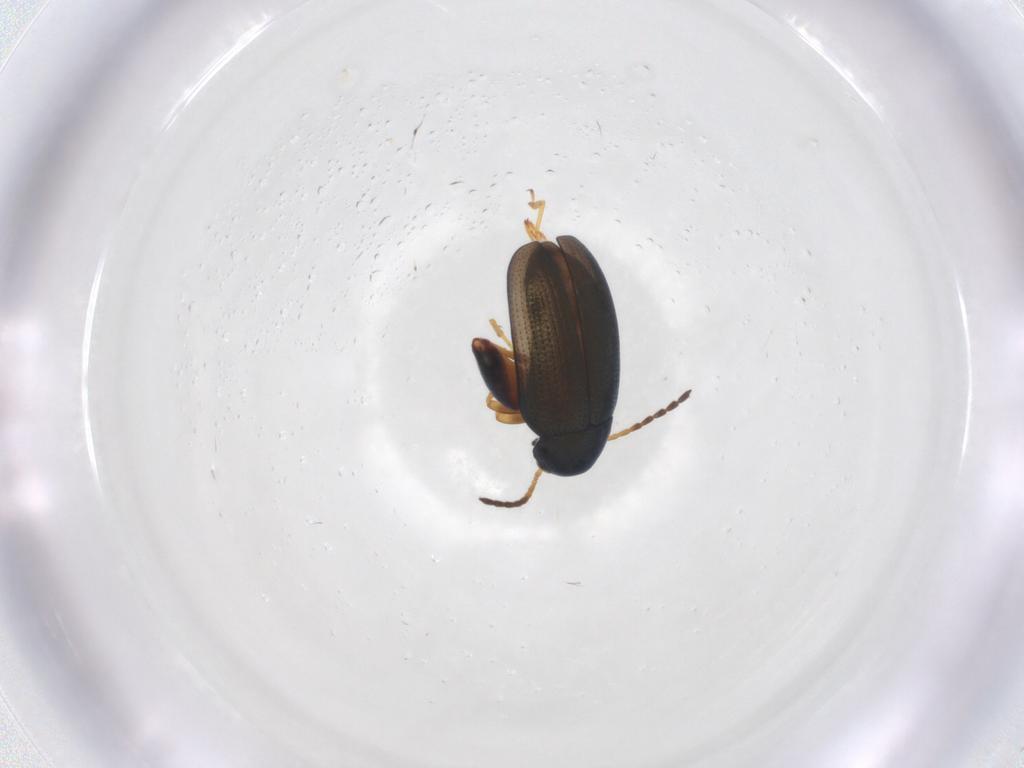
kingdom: Animalia
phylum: Arthropoda
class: Insecta
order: Coleoptera
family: Chrysomelidae
